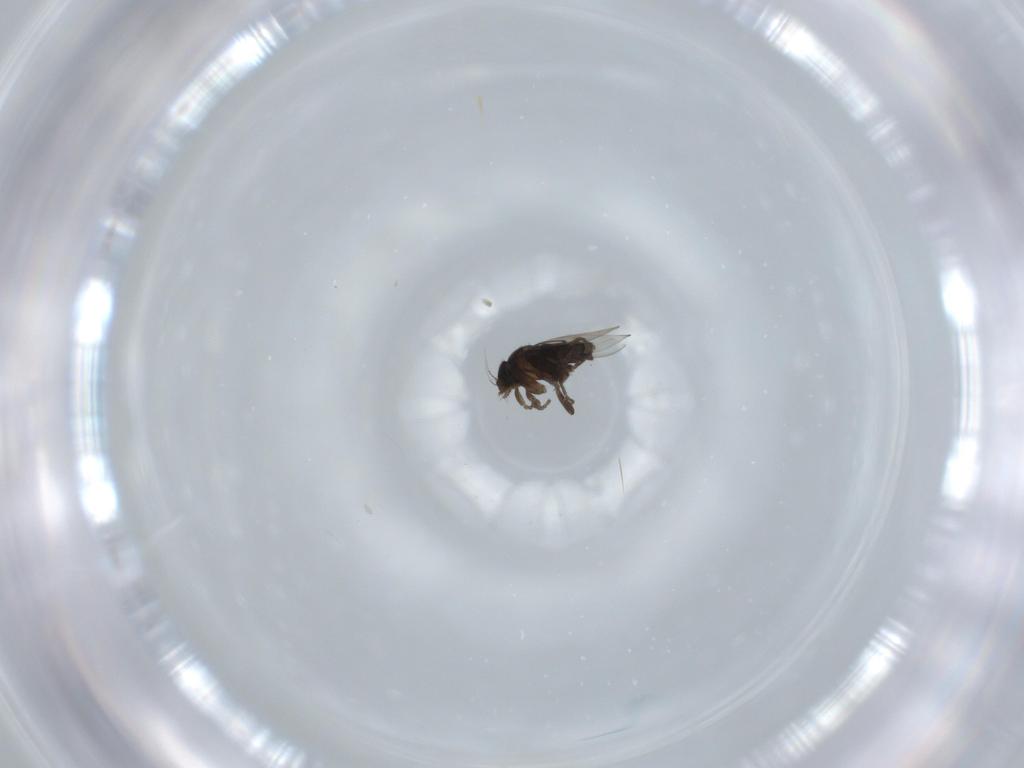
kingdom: Animalia
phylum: Arthropoda
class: Insecta
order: Diptera
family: Phoridae
